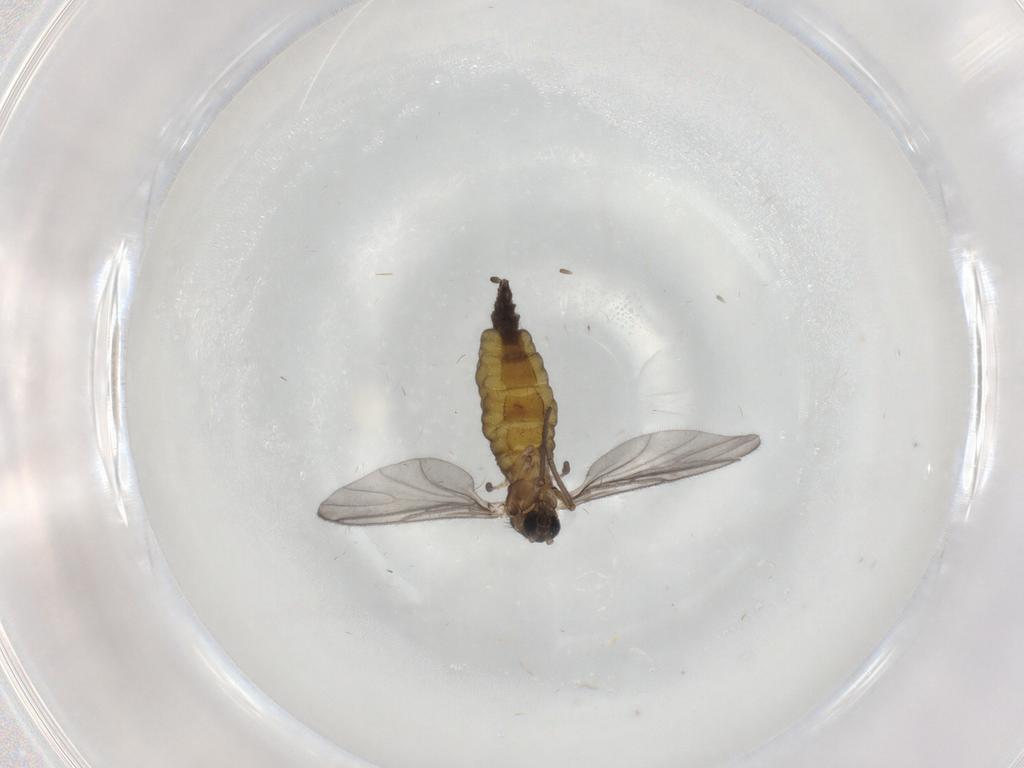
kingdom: Animalia
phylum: Arthropoda
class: Insecta
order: Diptera
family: Sciaridae
